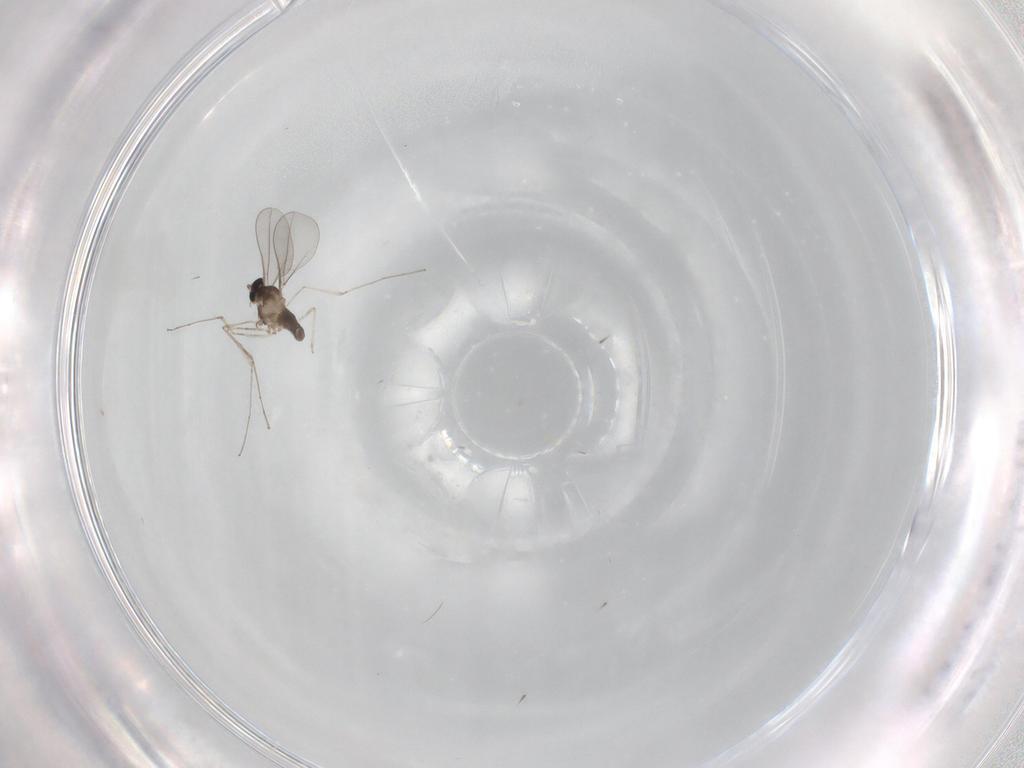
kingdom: Animalia
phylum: Arthropoda
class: Insecta
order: Diptera
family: Cecidomyiidae
